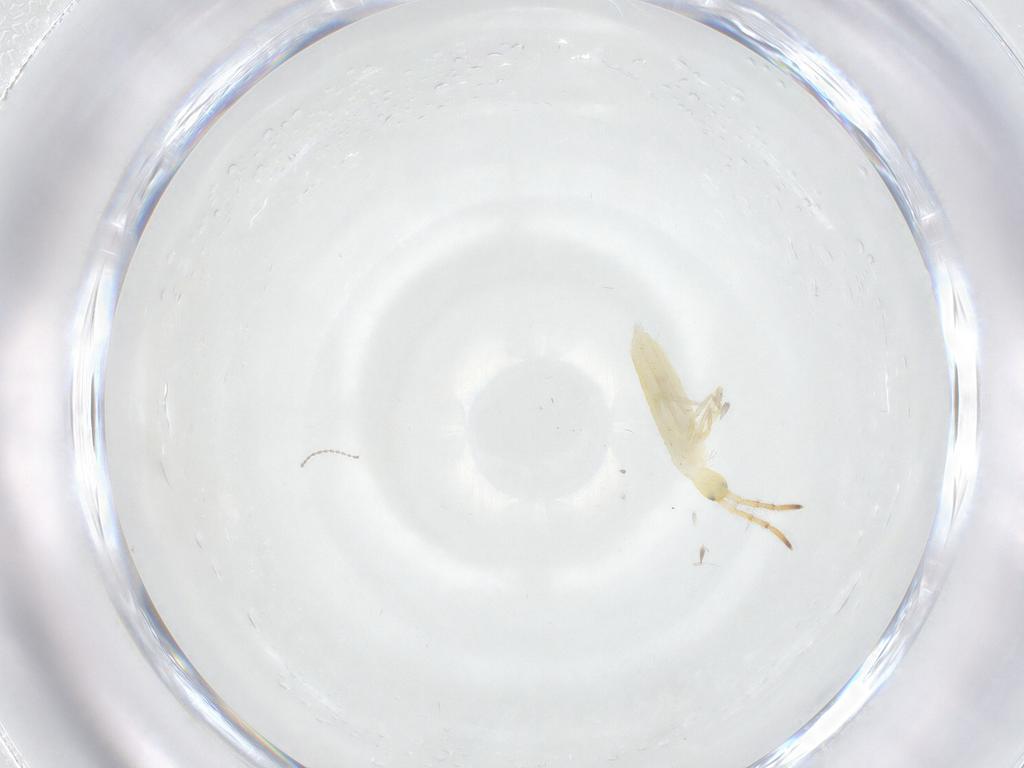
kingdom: Animalia
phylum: Arthropoda
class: Collembola
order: Entomobryomorpha
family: Entomobryidae
